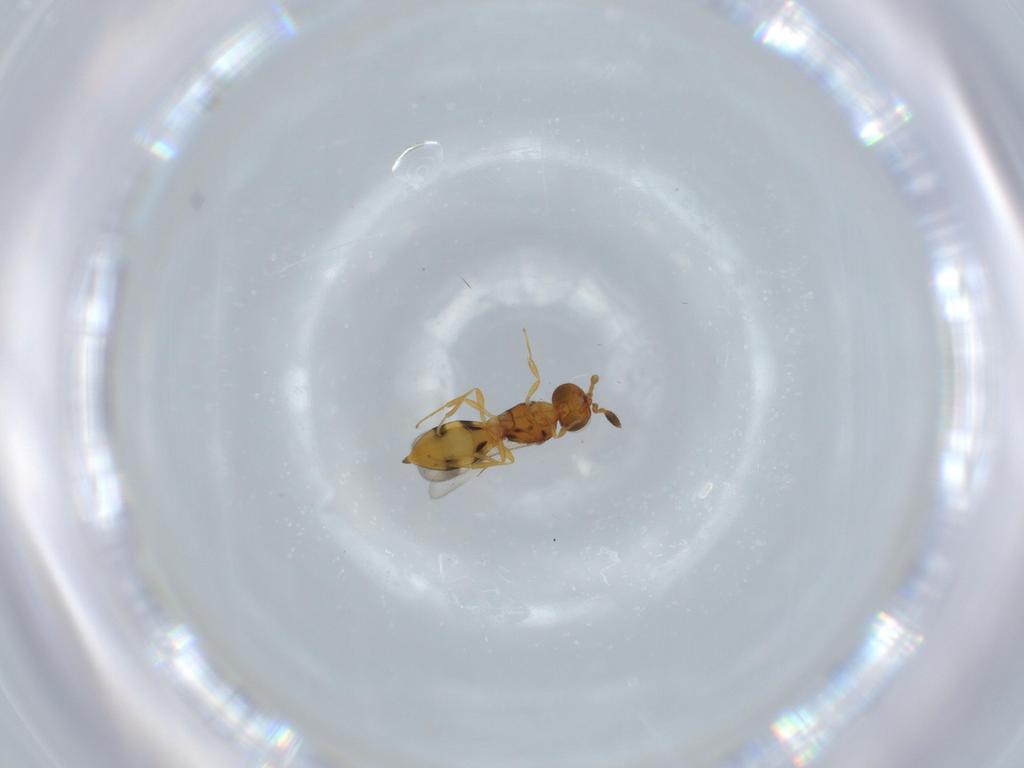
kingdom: Animalia
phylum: Arthropoda
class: Insecta
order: Hymenoptera
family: Scelionidae
